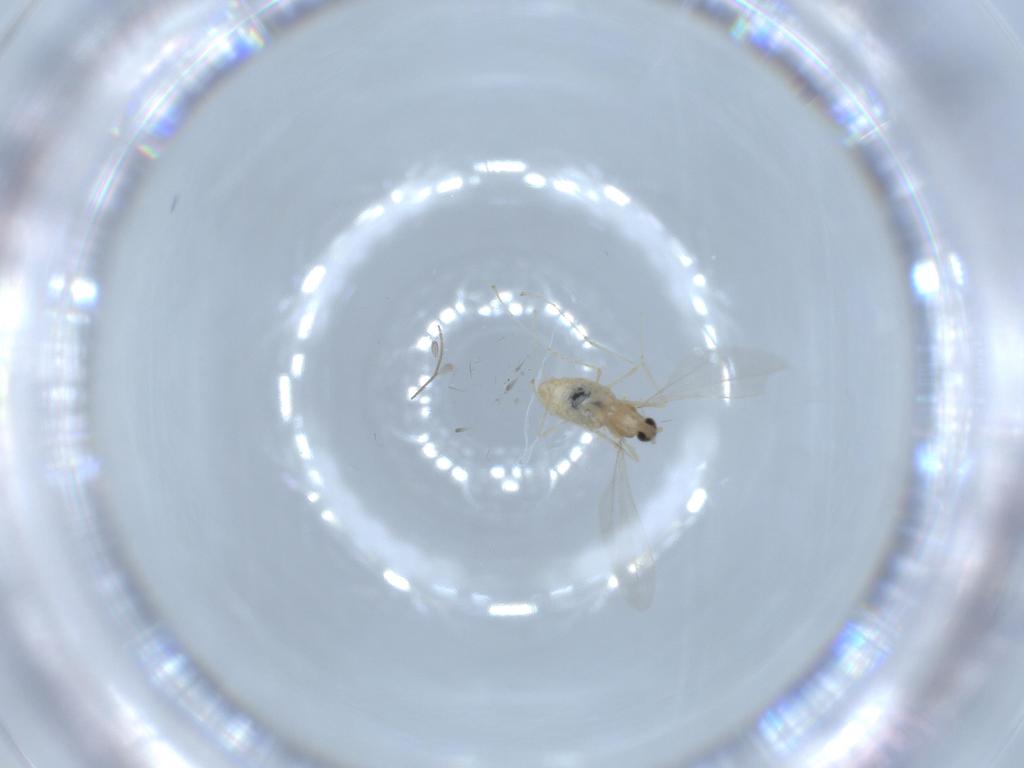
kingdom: Animalia
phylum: Arthropoda
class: Insecta
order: Diptera
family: Cecidomyiidae
